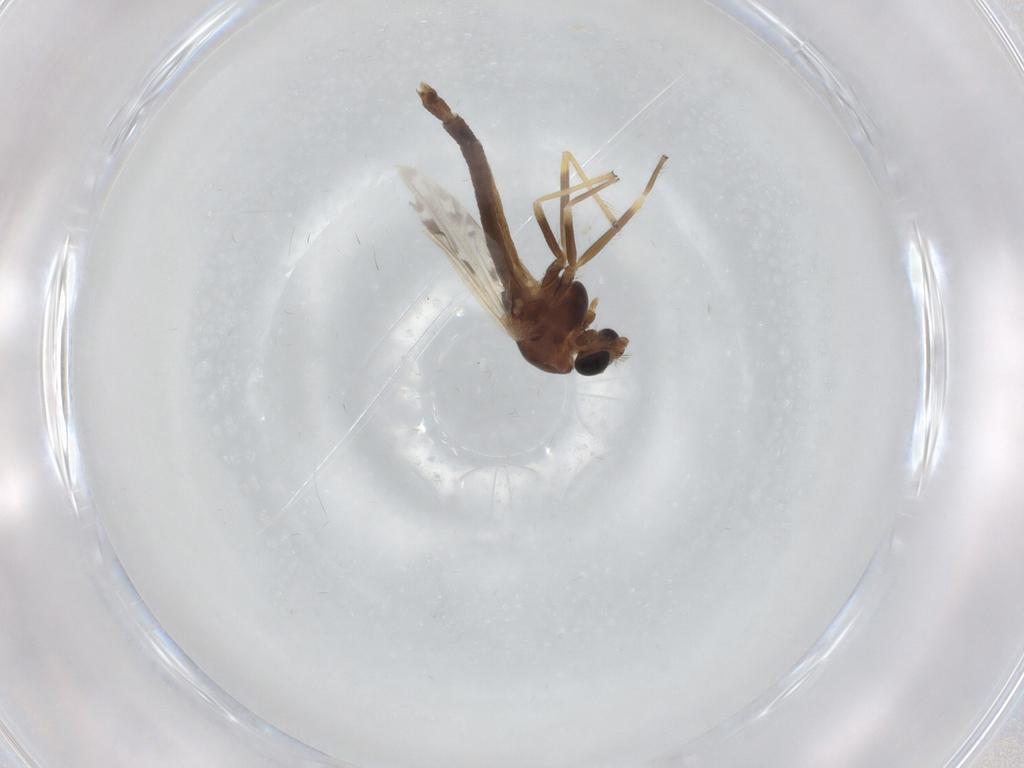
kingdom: Animalia
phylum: Arthropoda
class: Insecta
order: Diptera
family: Chironomidae
